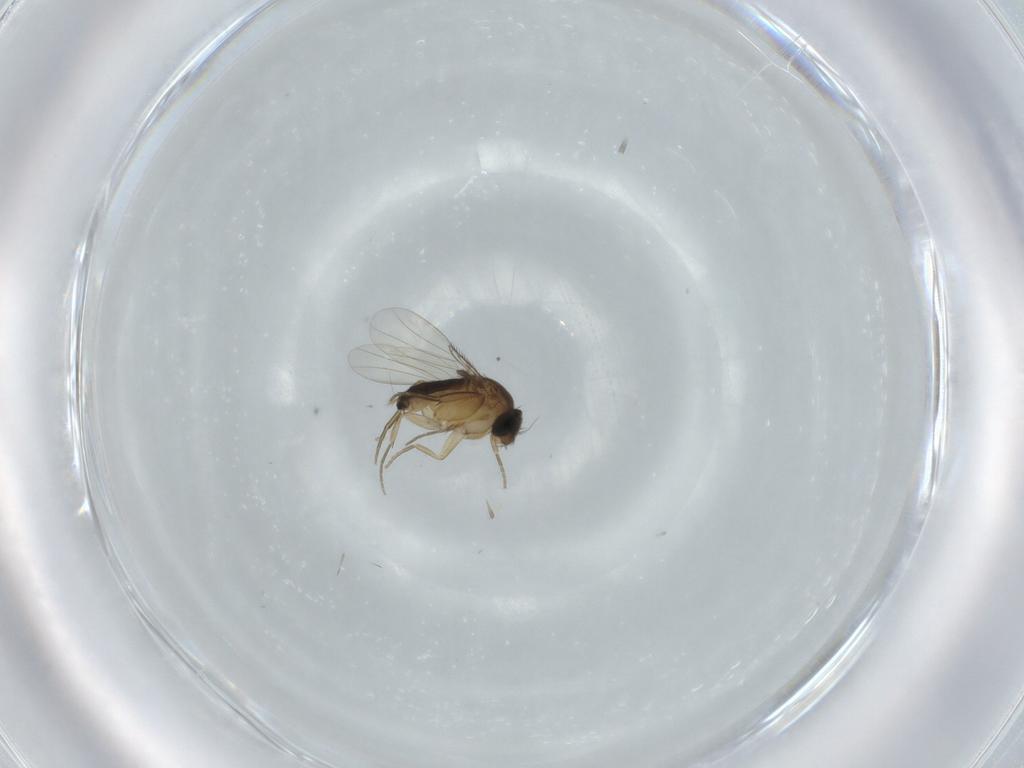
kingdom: Animalia
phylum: Arthropoda
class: Insecta
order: Diptera
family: Phoridae
